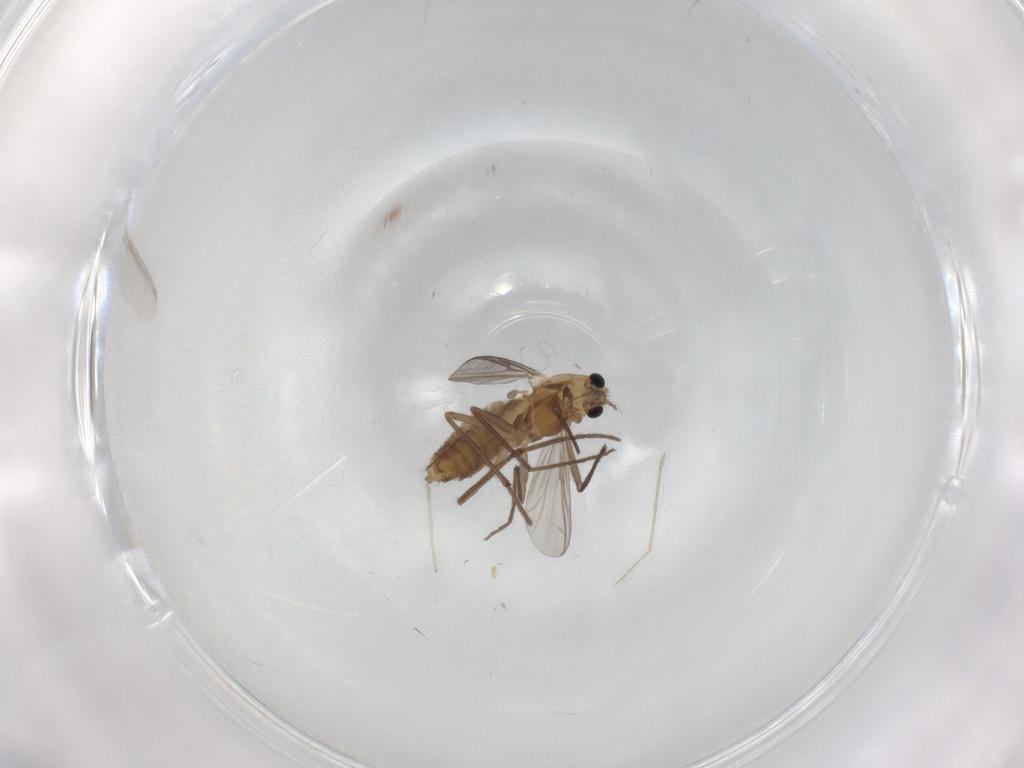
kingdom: Animalia
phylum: Arthropoda
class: Insecta
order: Diptera
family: Chironomidae
